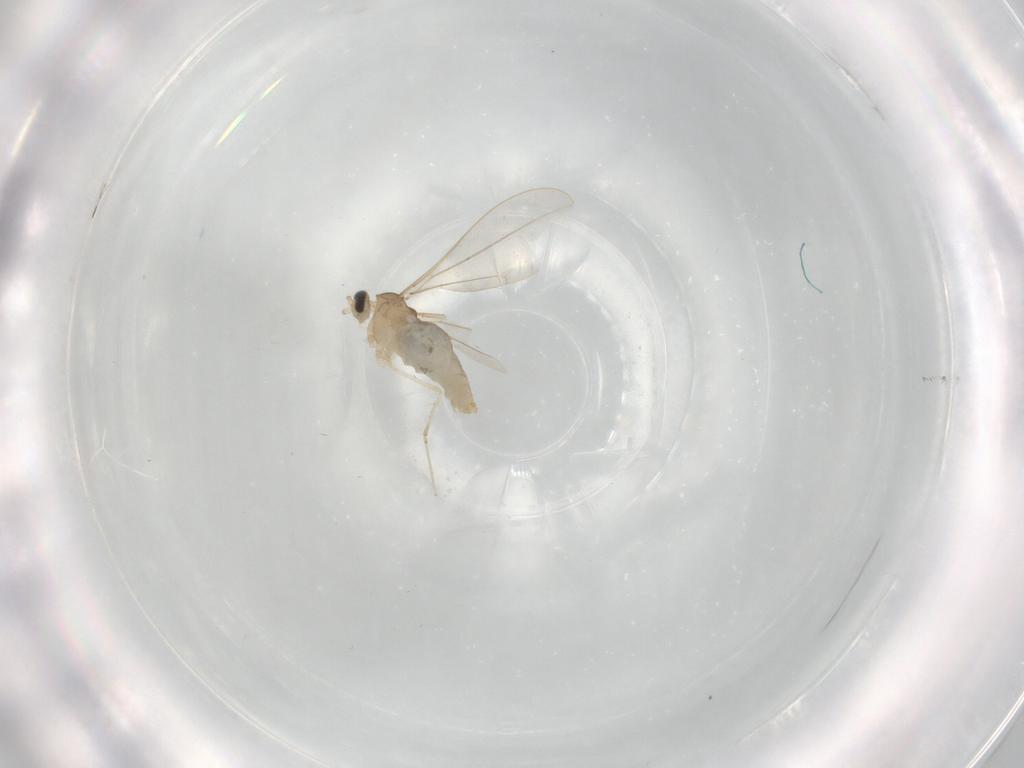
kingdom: Animalia
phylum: Arthropoda
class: Insecta
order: Diptera
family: Cecidomyiidae
